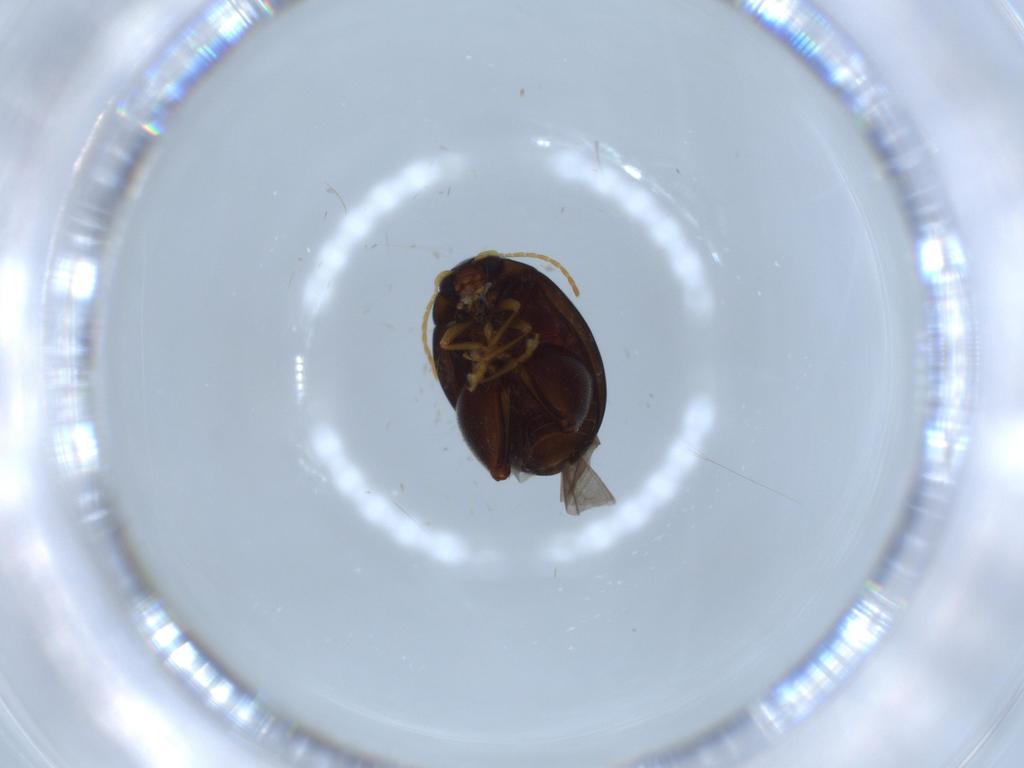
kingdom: Animalia
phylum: Arthropoda
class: Insecta
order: Coleoptera
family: Chrysomelidae
